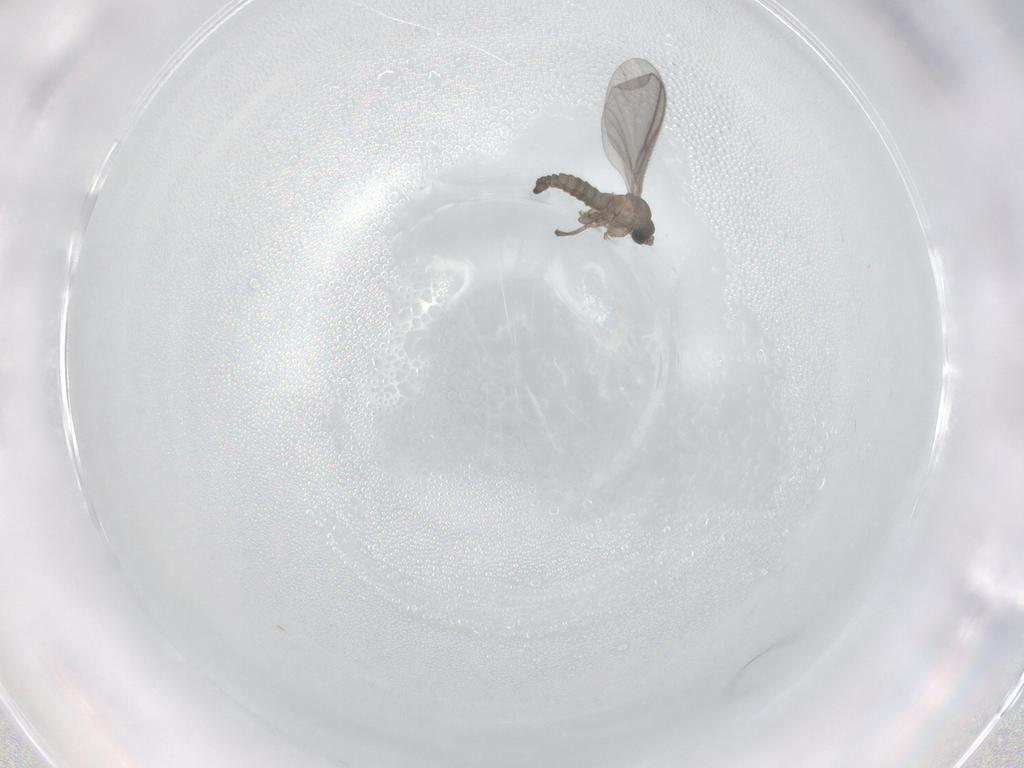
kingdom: Animalia
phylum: Arthropoda
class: Insecta
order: Diptera
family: Sciaridae
